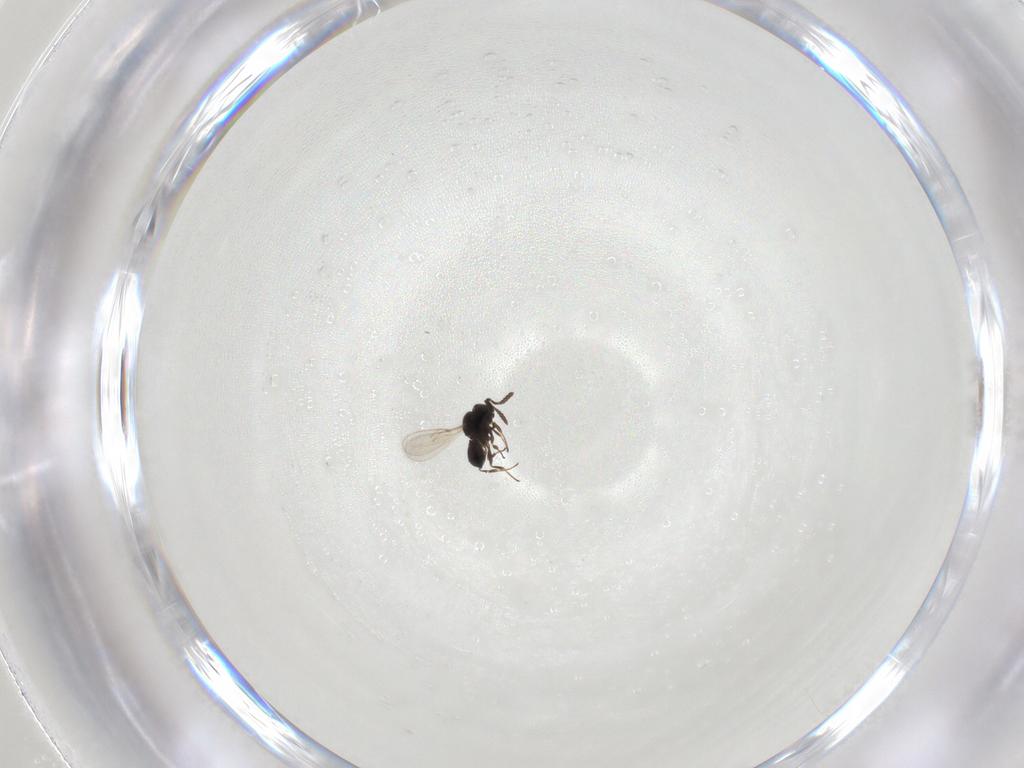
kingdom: Animalia
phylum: Arthropoda
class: Insecta
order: Hymenoptera
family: Scelionidae
